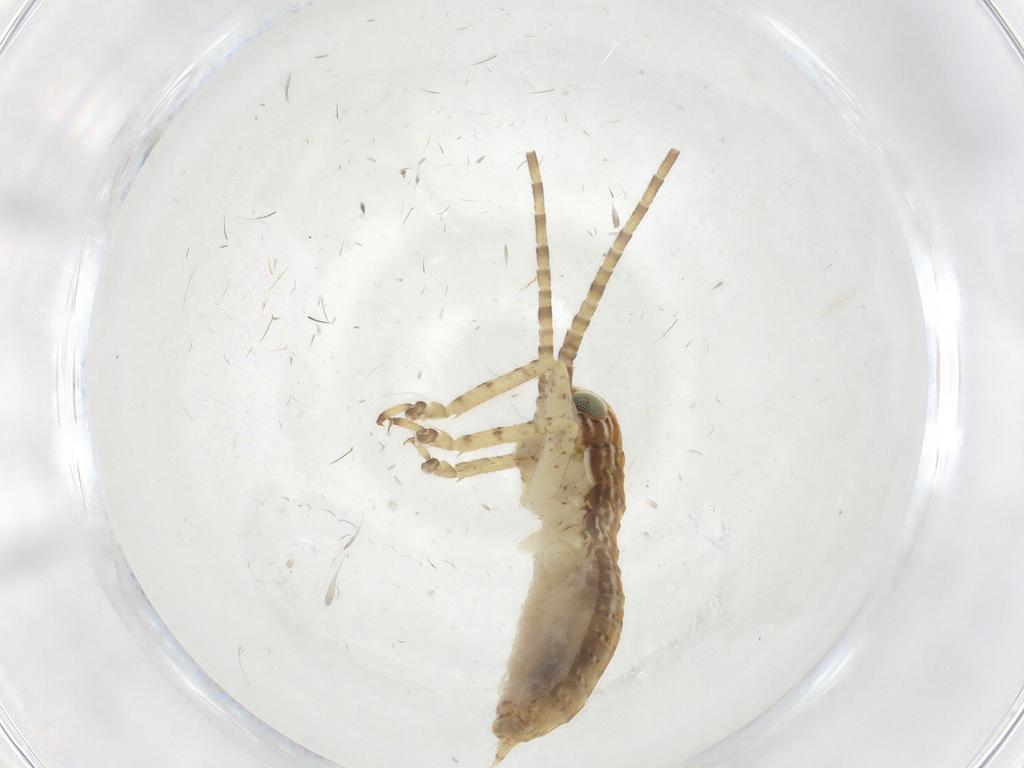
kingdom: Animalia
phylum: Arthropoda
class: Insecta
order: Orthoptera
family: Gryllidae
